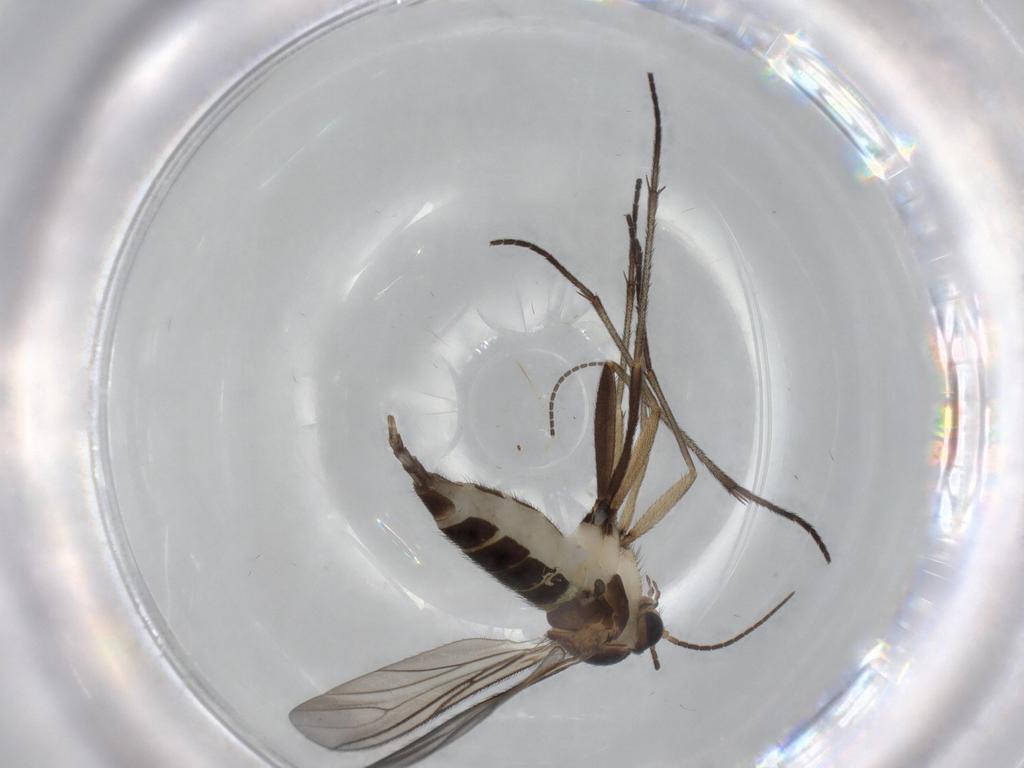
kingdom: Animalia
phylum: Arthropoda
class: Insecta
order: Diptera
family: Sciaridae
